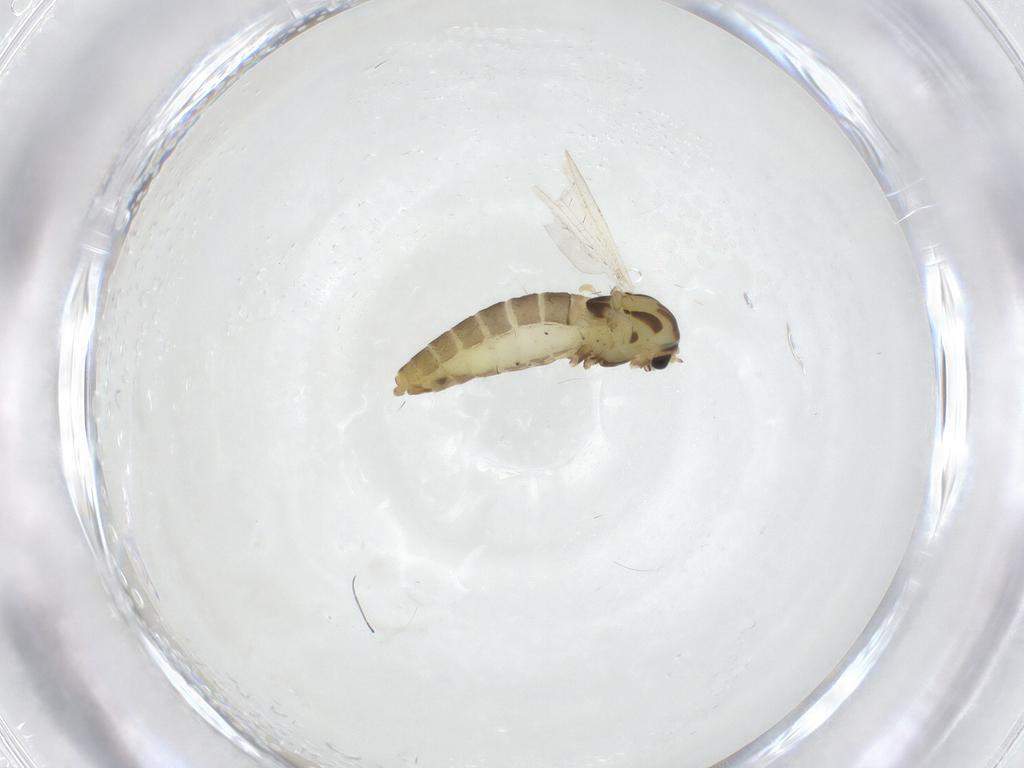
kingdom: Animalia
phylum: Arthropoda
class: Insecta
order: Diptera
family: Chironomidae
